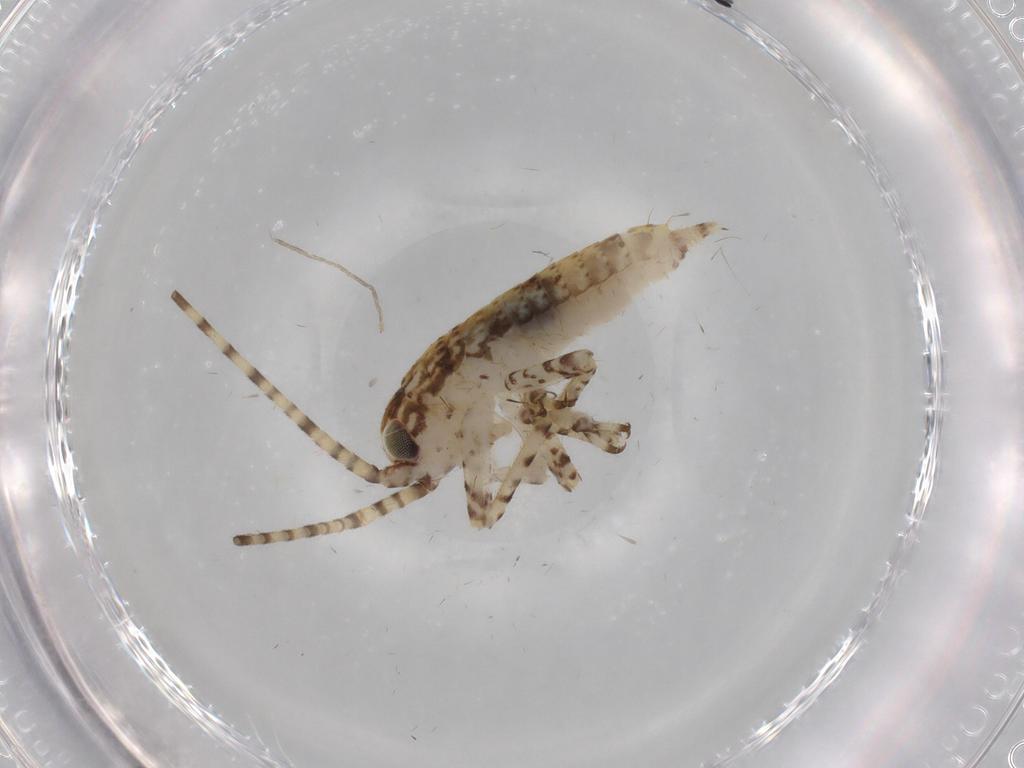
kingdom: Animalia
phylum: Arthropoda
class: Insecta
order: Orthoptera
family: Gryllidae
